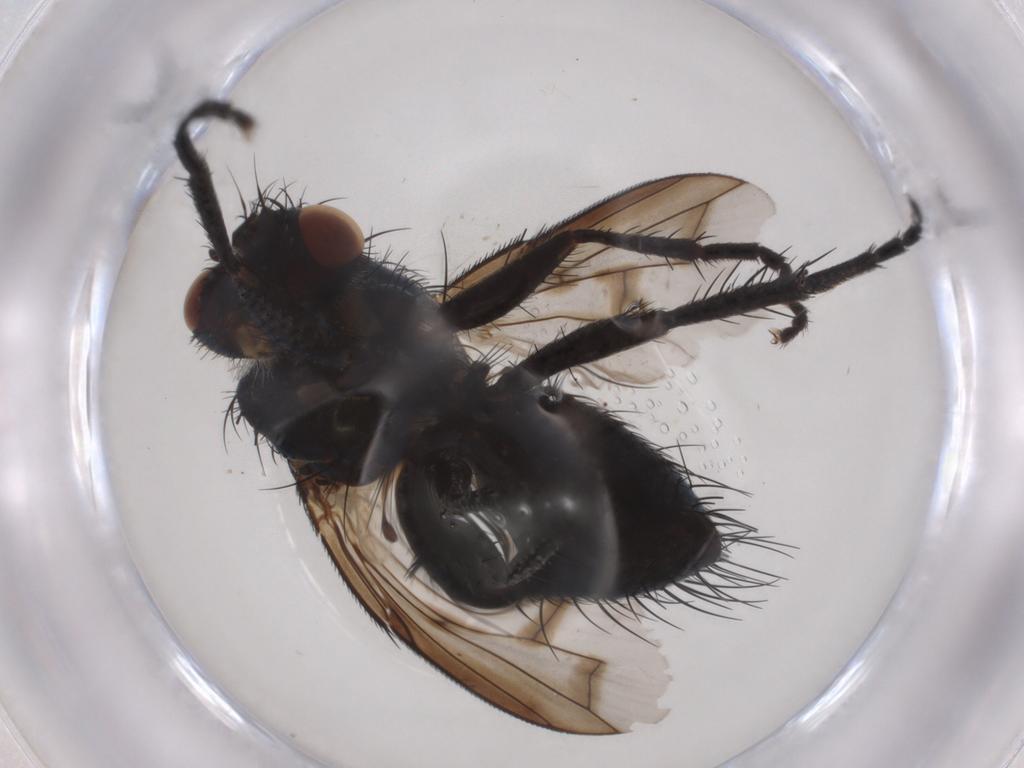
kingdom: Animalia
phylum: Arthropoda
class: Insecta
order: Diptera
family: Tachinidae
